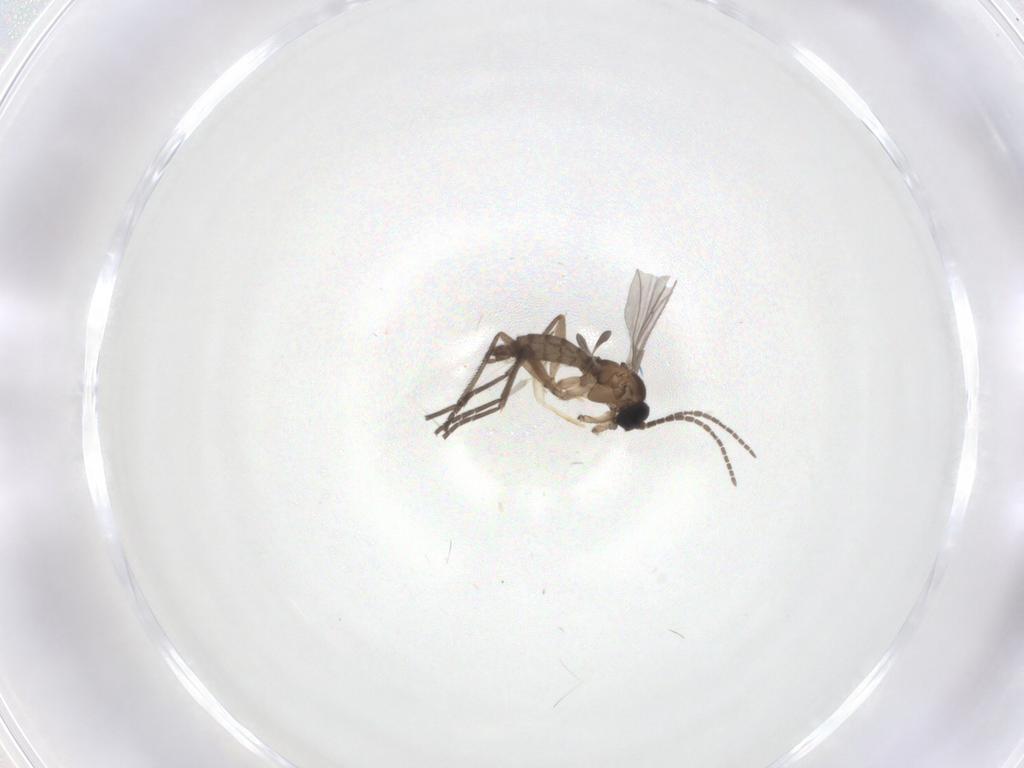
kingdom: Animalia
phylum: Arthropoda
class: Insecta
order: Diptera
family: Sciaridae
